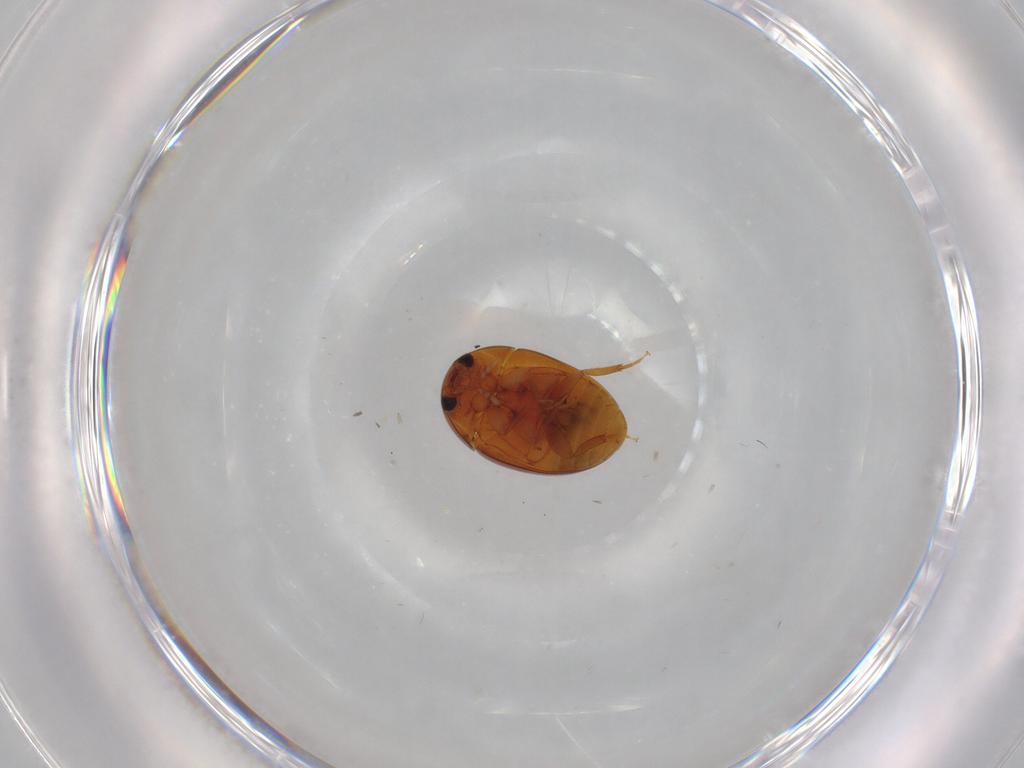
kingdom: Animalia
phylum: Arthropoda
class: Insecta
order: Coleoptera
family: Phalacridae
